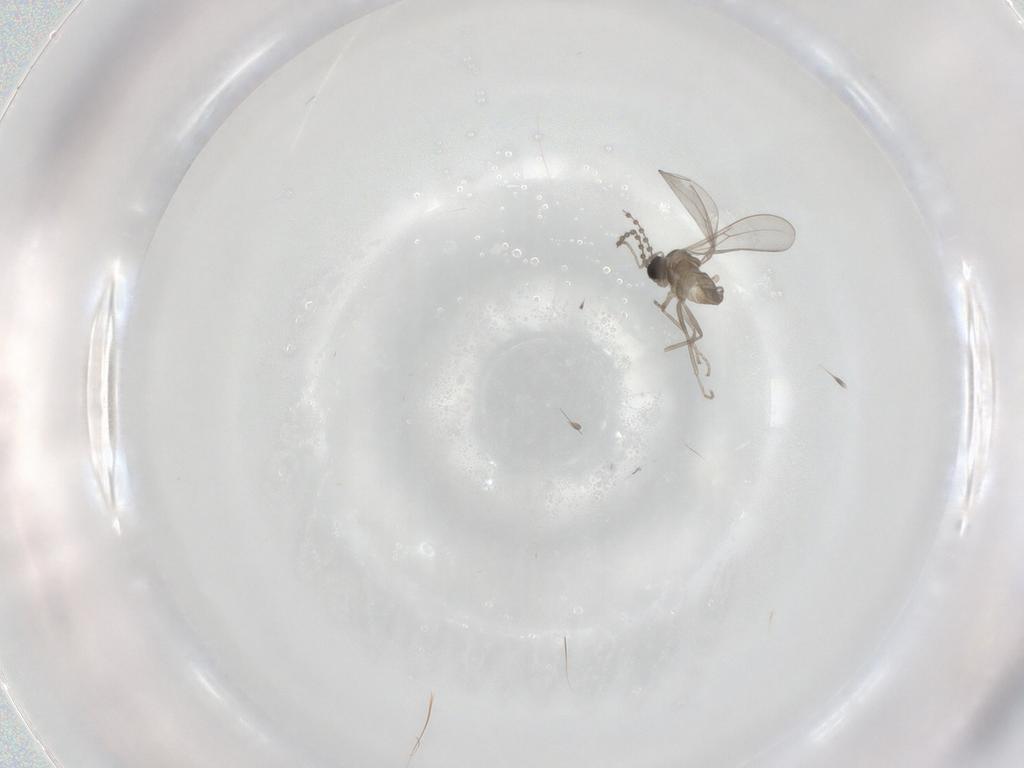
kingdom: Animalia
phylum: Arthropoda
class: Insecta
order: Diptera
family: Cecidomyiidae
